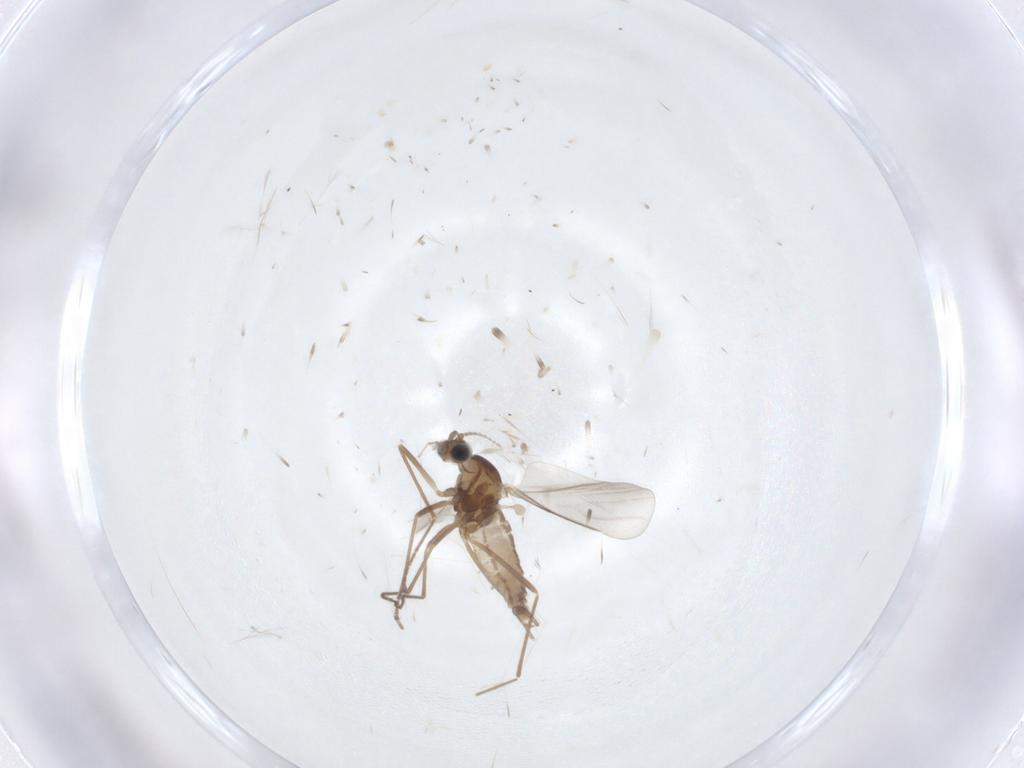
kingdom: Animalia
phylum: Arthropoda
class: Insecta
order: Diptera
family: Cecidomyiidae
